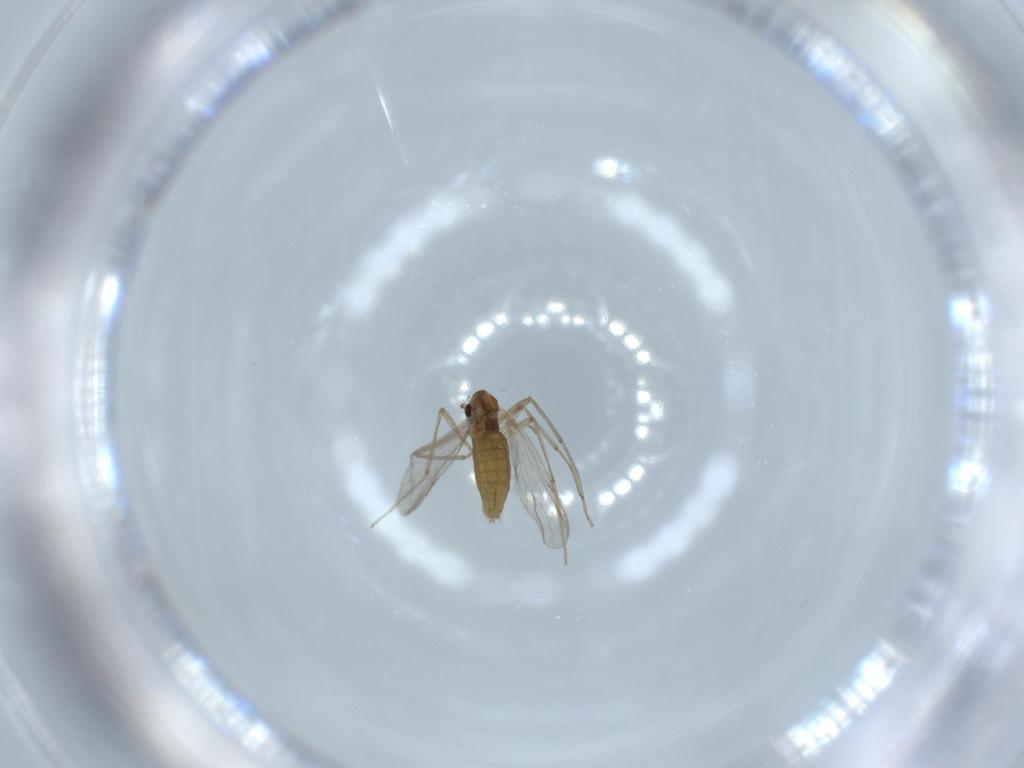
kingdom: Animalia
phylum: Arthropoda
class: Insecta
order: Diptera
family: Chironomidae
